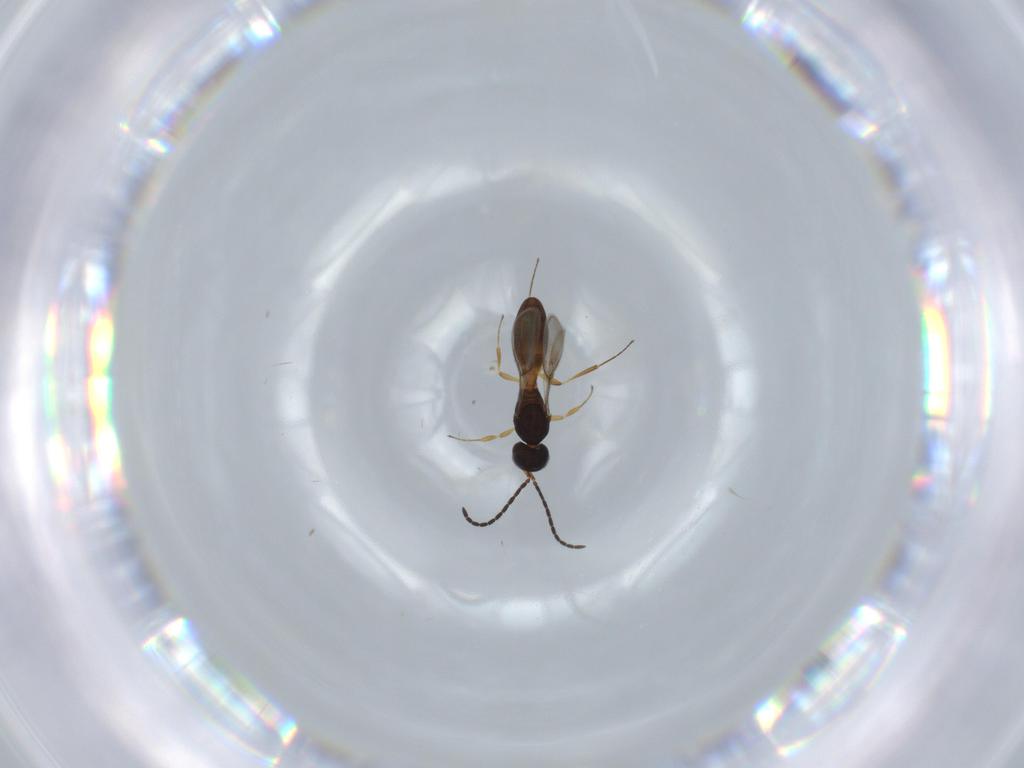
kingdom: Animalia
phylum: Arthropoda
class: Insecta
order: Hymenoptera
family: Scelionidae
